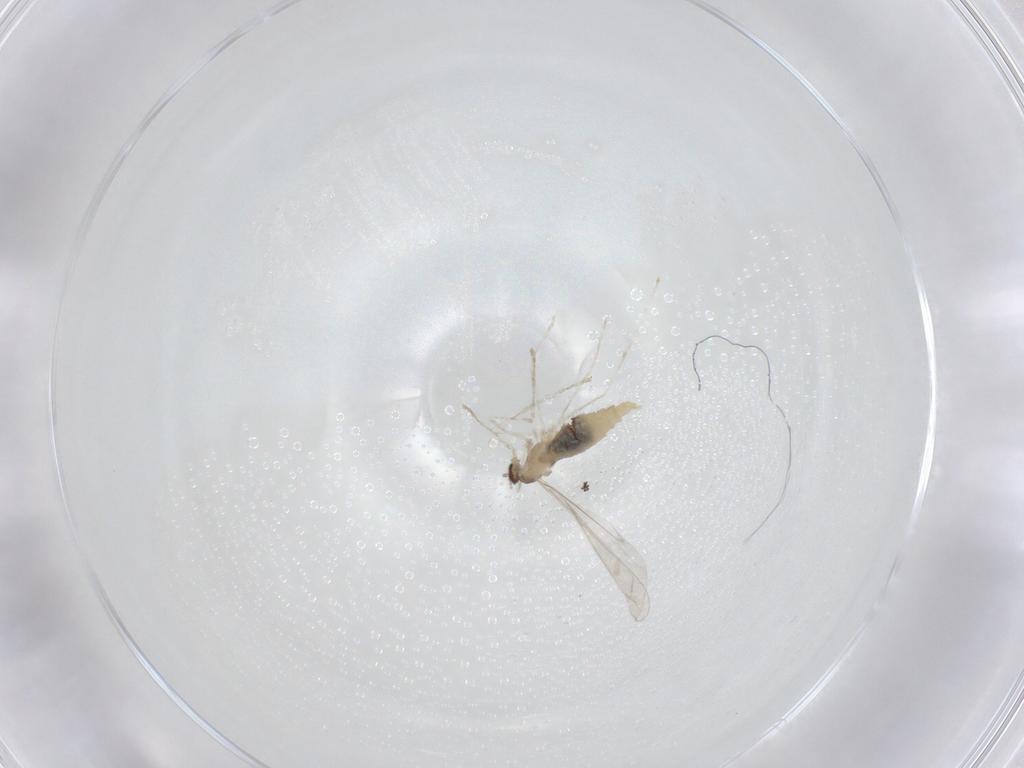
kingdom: Animalia
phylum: Arthropoda
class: Insecta
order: Diptera
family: Cecidomyiidae
